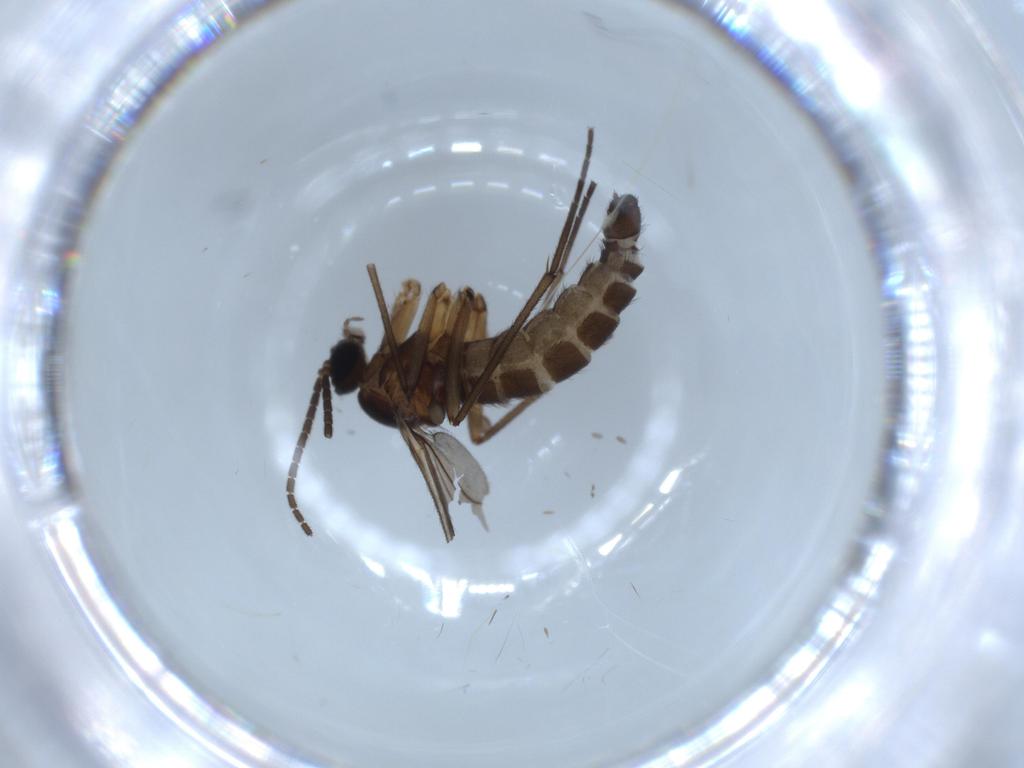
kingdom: Animalia
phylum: Arthropoda
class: Insecta
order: Diptera
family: Sciaridae
